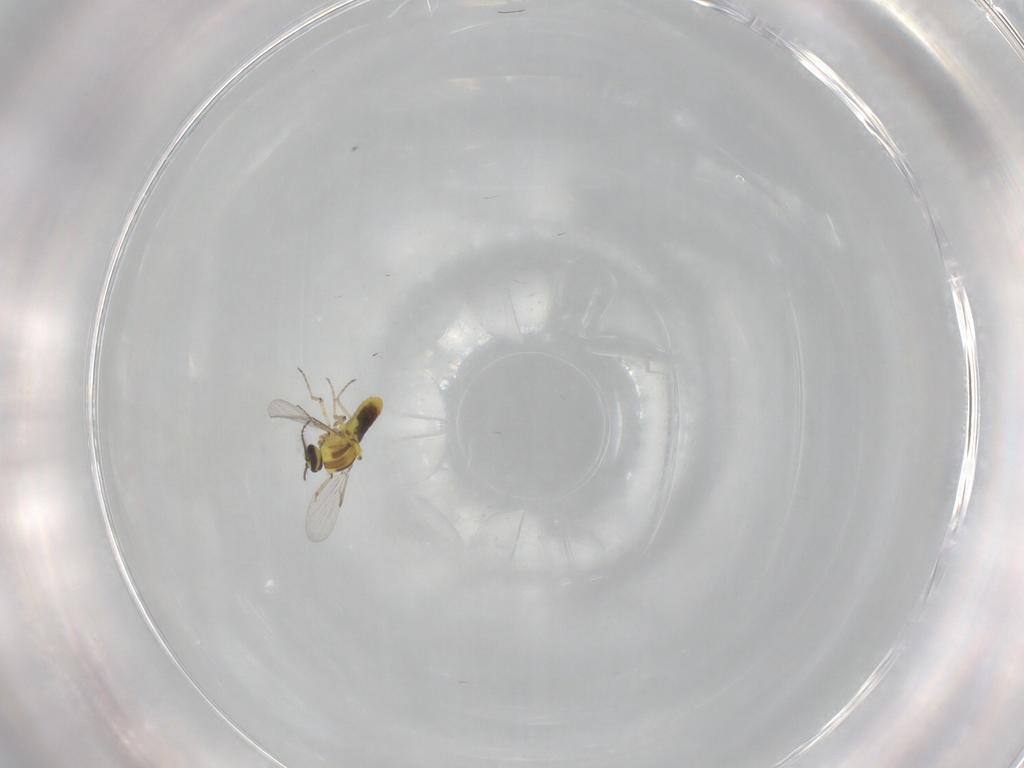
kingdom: Animalia
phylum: Arthropoda
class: Insecta
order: Diptera
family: Ceratopogonidae
